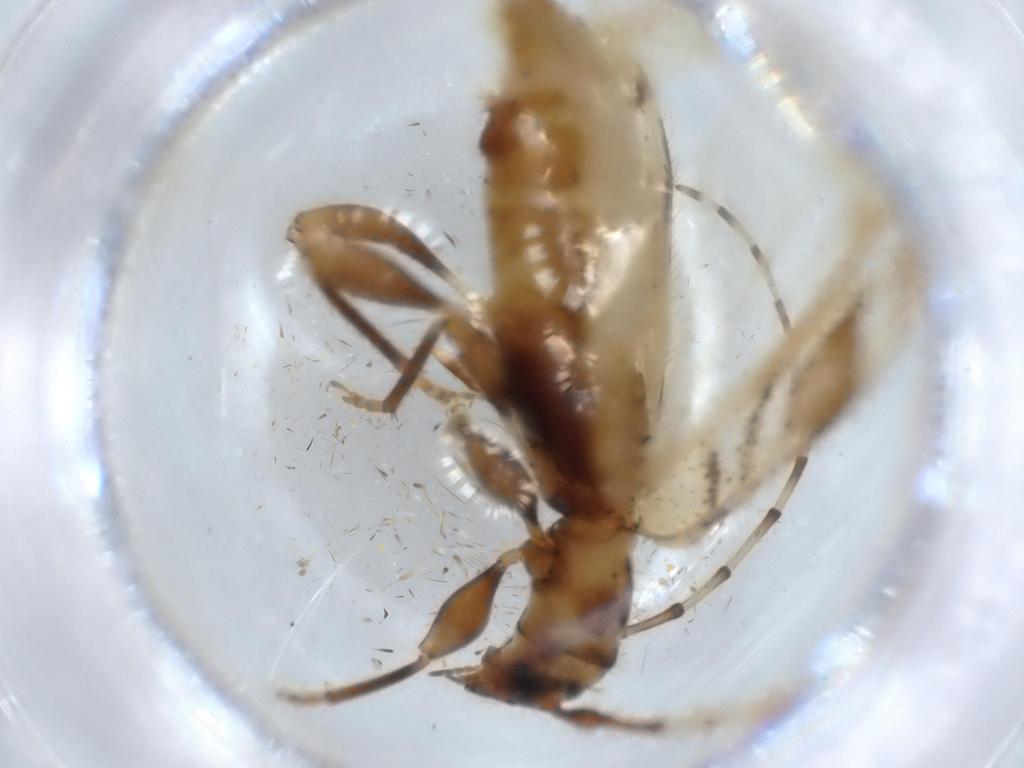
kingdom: Animalia
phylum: Arthropoda
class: Insecta
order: Coleoptera
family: Cerambycidae
